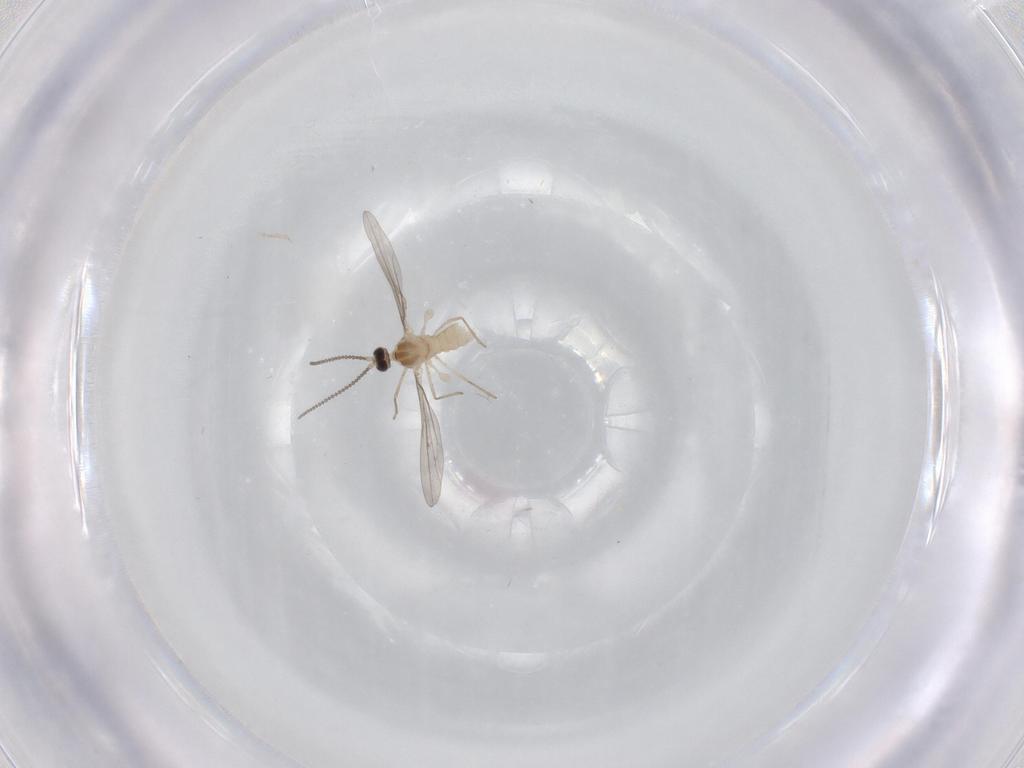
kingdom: Animalia
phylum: Arthropoda
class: Insecta
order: Diptera
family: Cecidomyiidae
